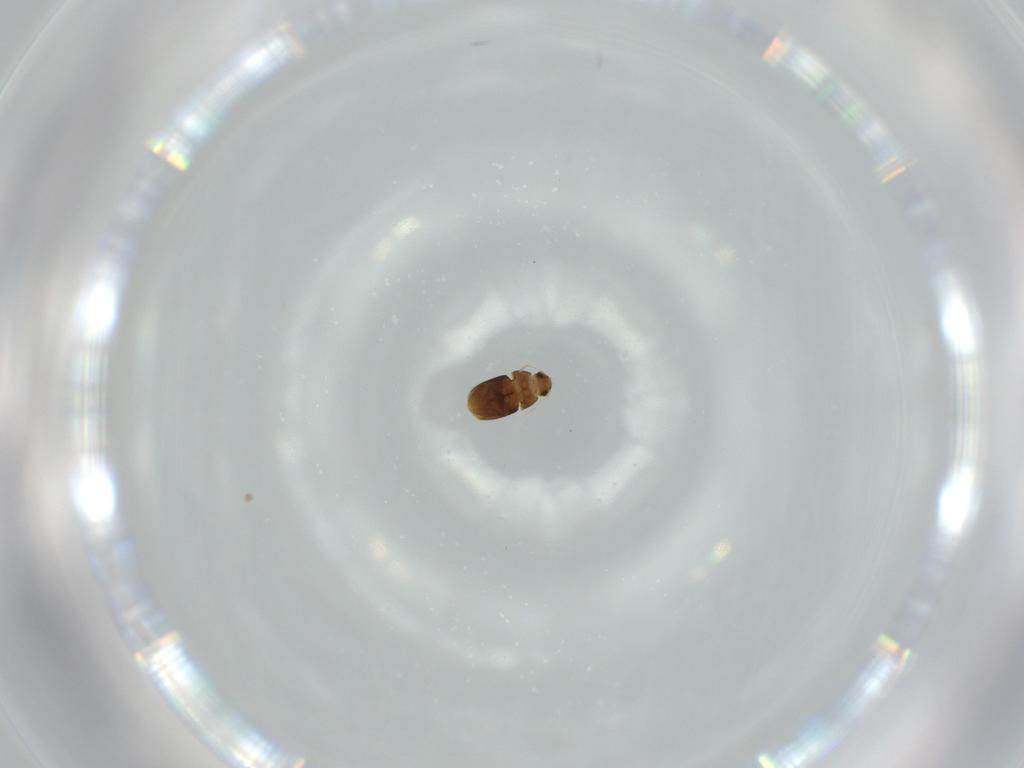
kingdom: Animalia
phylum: Arthropoda
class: Insecta
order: Coleoptera
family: Ptiliidae
